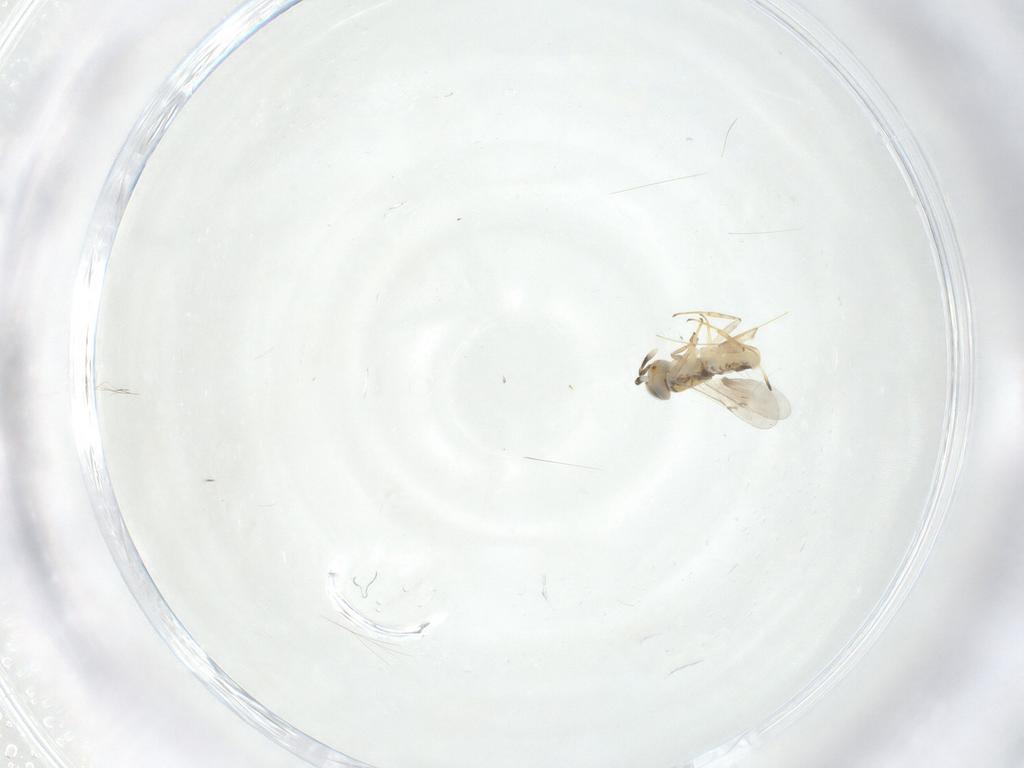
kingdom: Animalia
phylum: Arthropoda
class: Insecta
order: Hymenoptera
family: Encyrtidae
